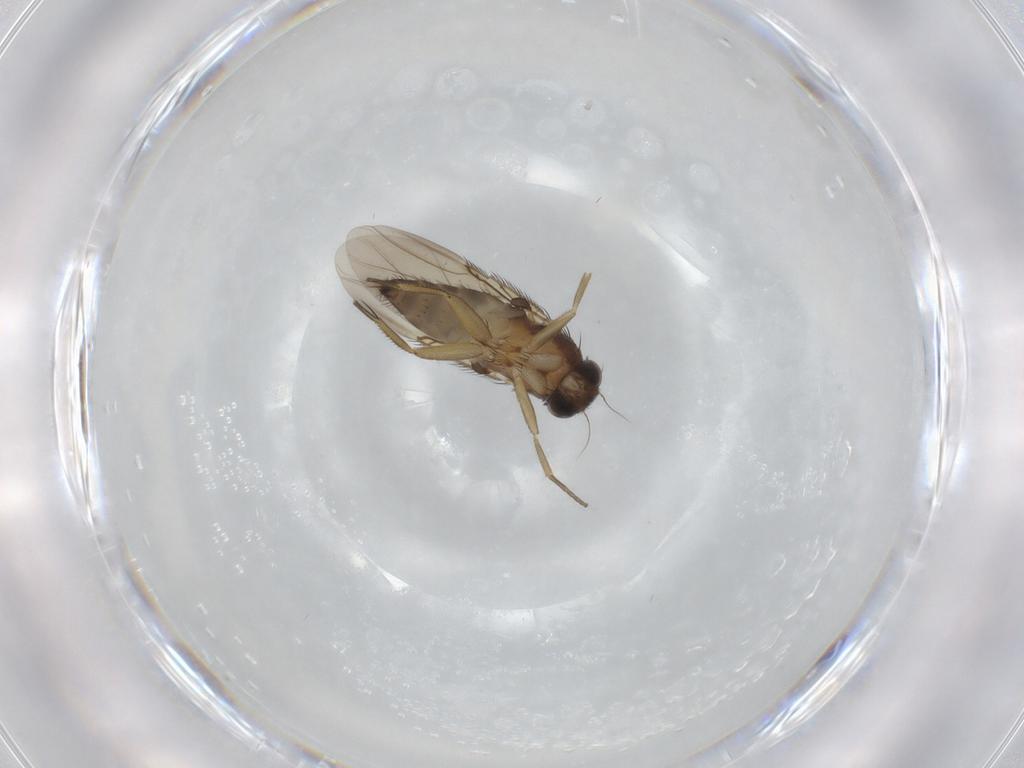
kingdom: Animalia
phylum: Arthropoda
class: Insecta
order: Diptera
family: Phoridae
